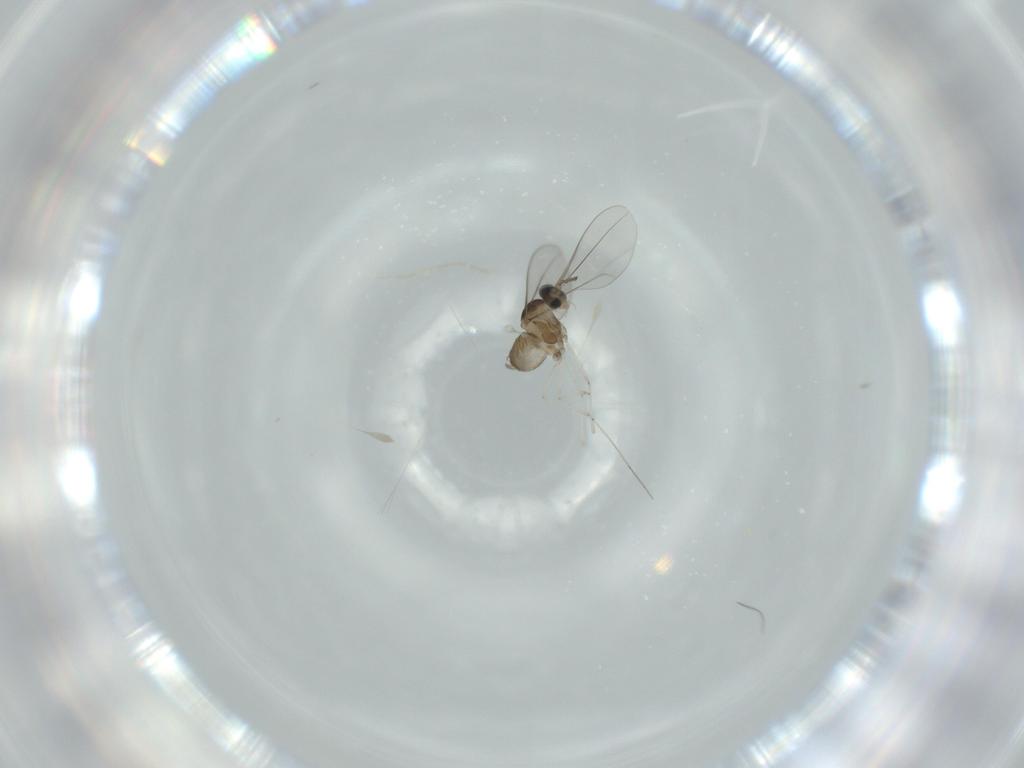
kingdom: Animalia
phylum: Arthropoda
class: Insecta
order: Diptera
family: Cecidomyiidae
